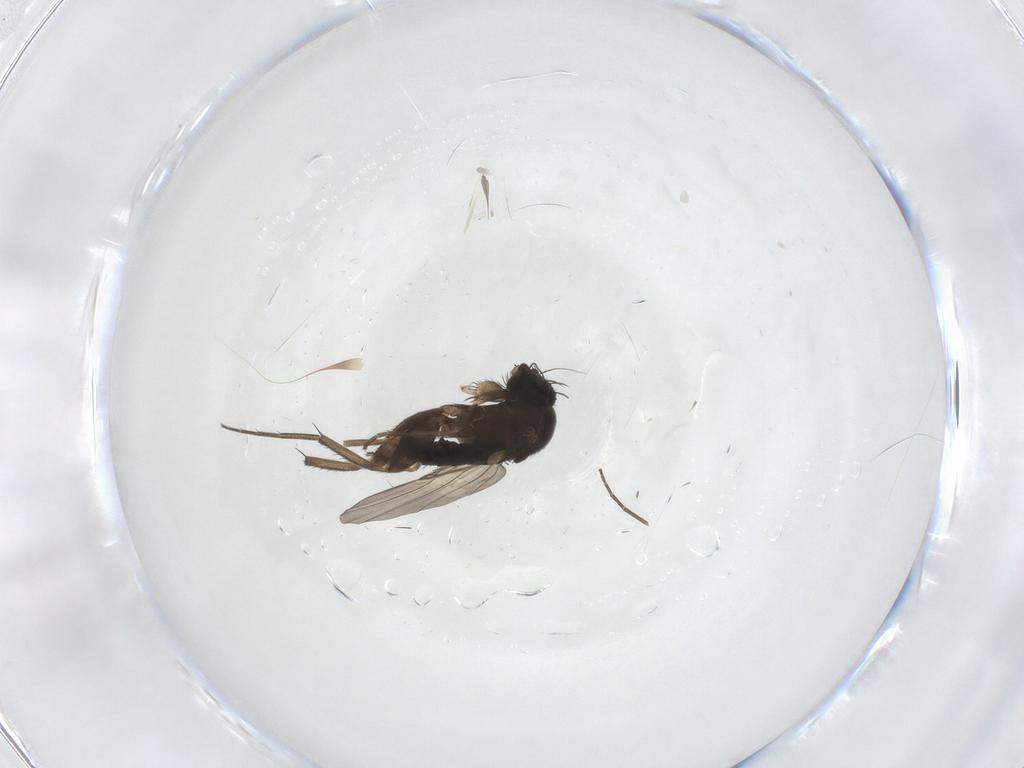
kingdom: Animalia
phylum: Arthropoda
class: Insecta
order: Diptera
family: Phoridae
